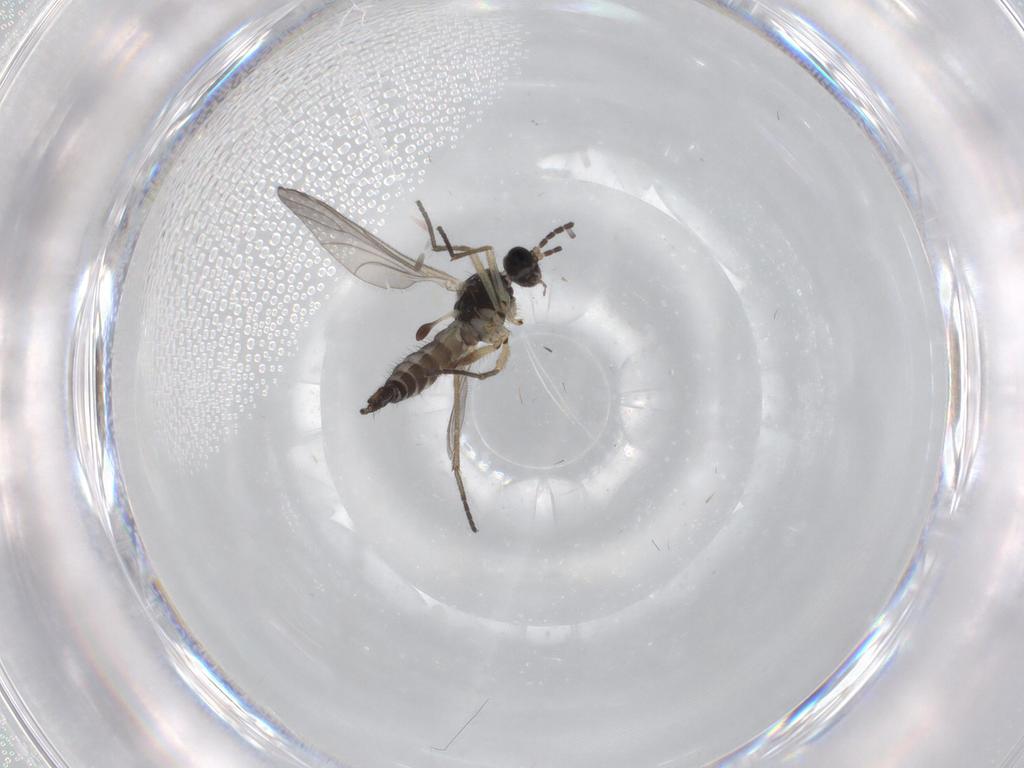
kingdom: Animalia
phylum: Arthropoda
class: Insecta
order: Diptera
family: Sciaridae
